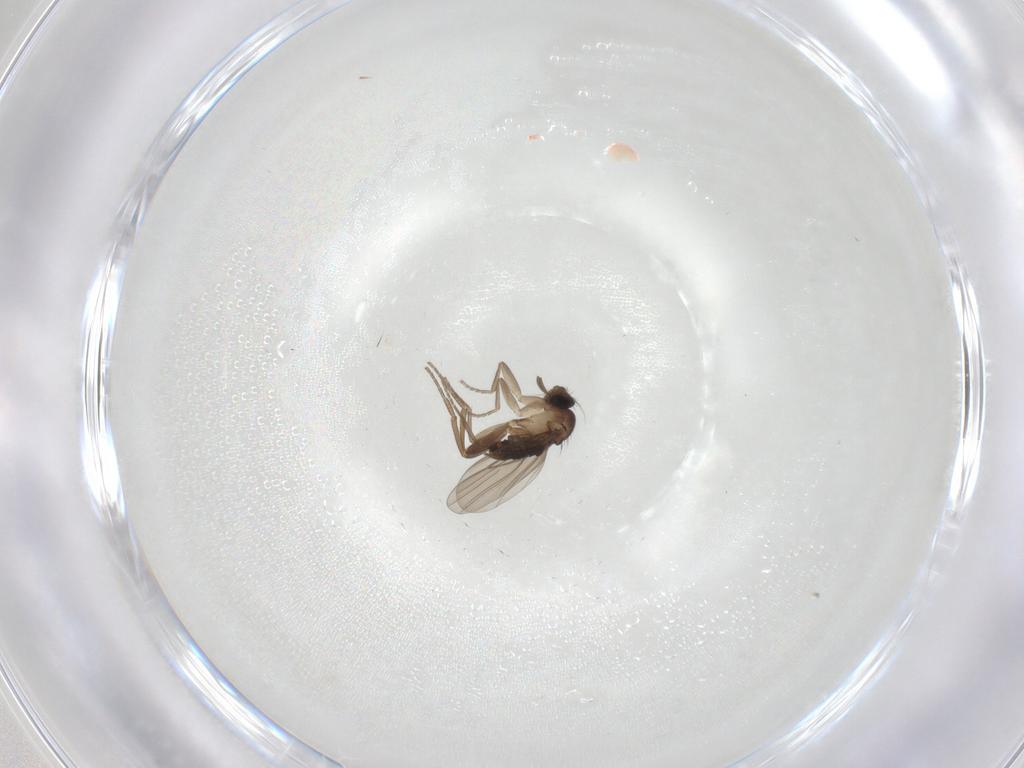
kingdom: Animalia
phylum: Arthropoda
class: Insecta
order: Diptera
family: Phoridae
